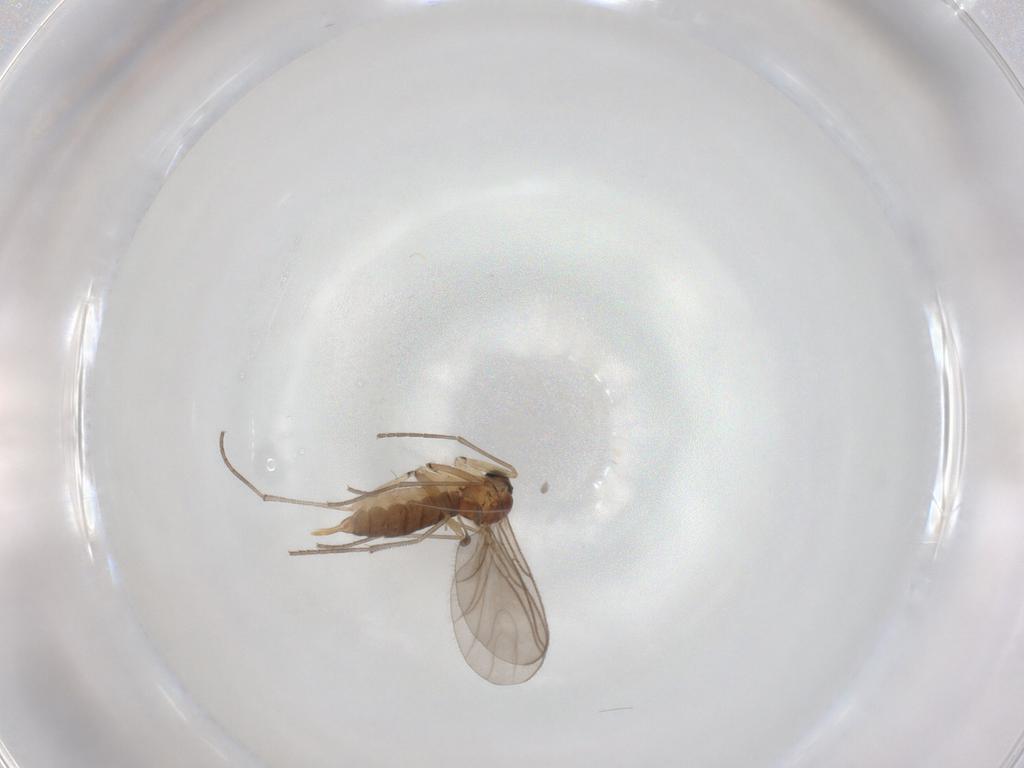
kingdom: Animalia
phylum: Arthropoda
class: Insecta
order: Diptera
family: Sciaridae
